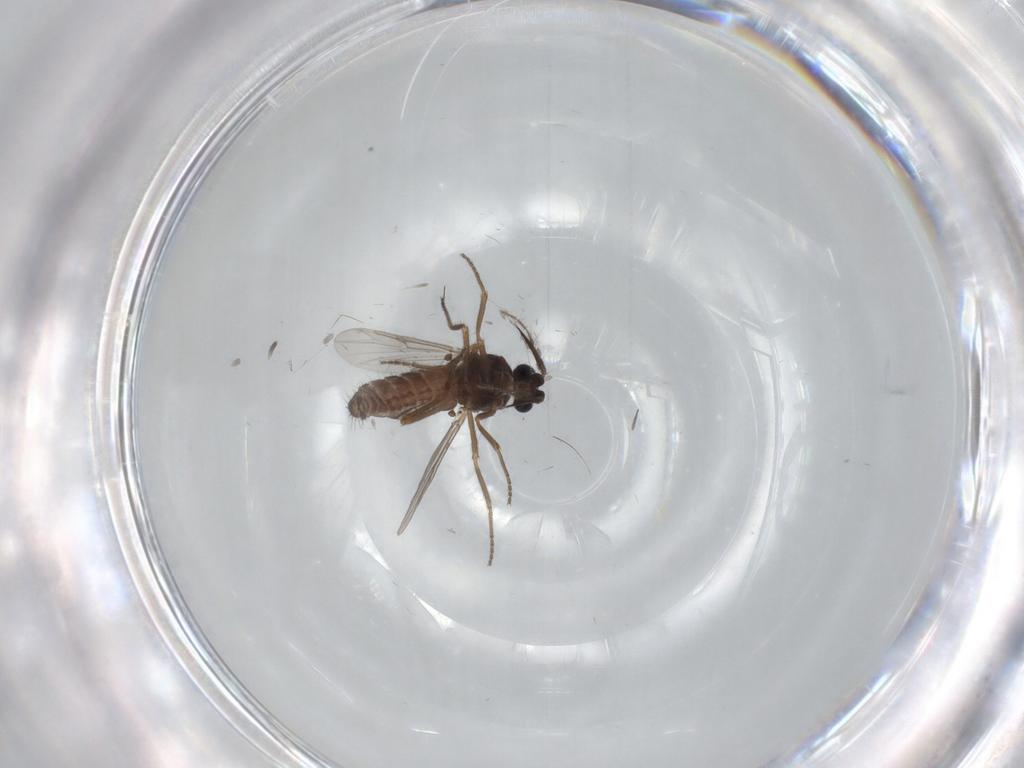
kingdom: Animalia
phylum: Arthropoda
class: Insecta
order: Diptera
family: Ceratopogonidae
